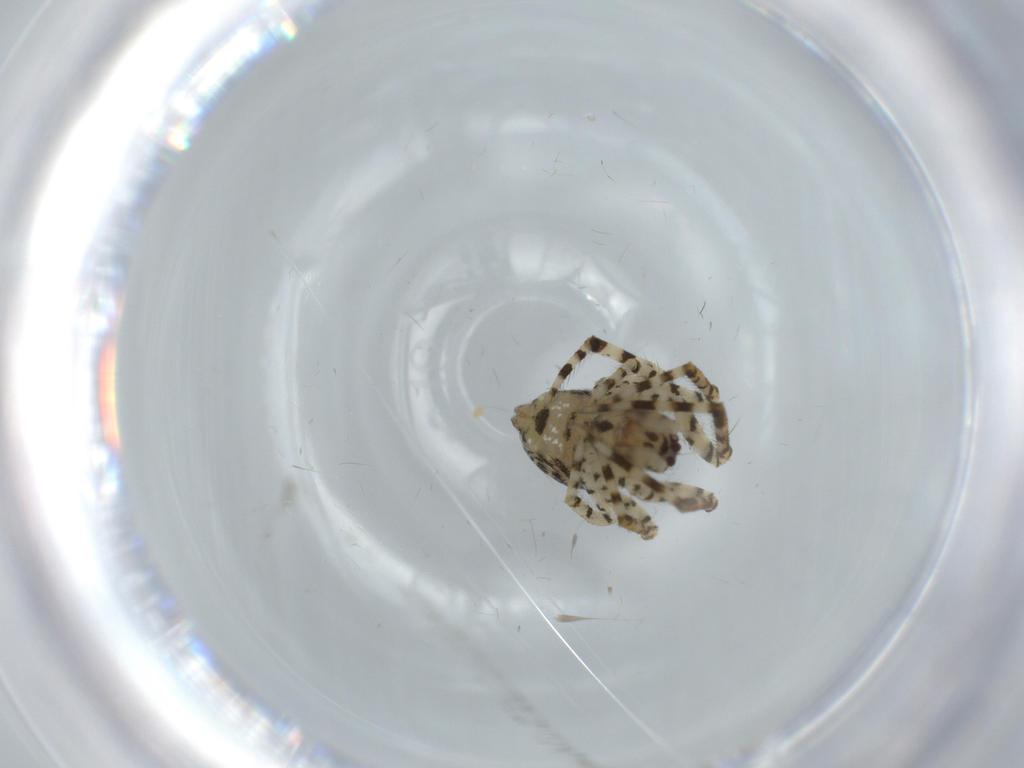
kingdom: Animalia
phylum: Arthropoda
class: Arachnida
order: Araneae
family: Theridiidae
